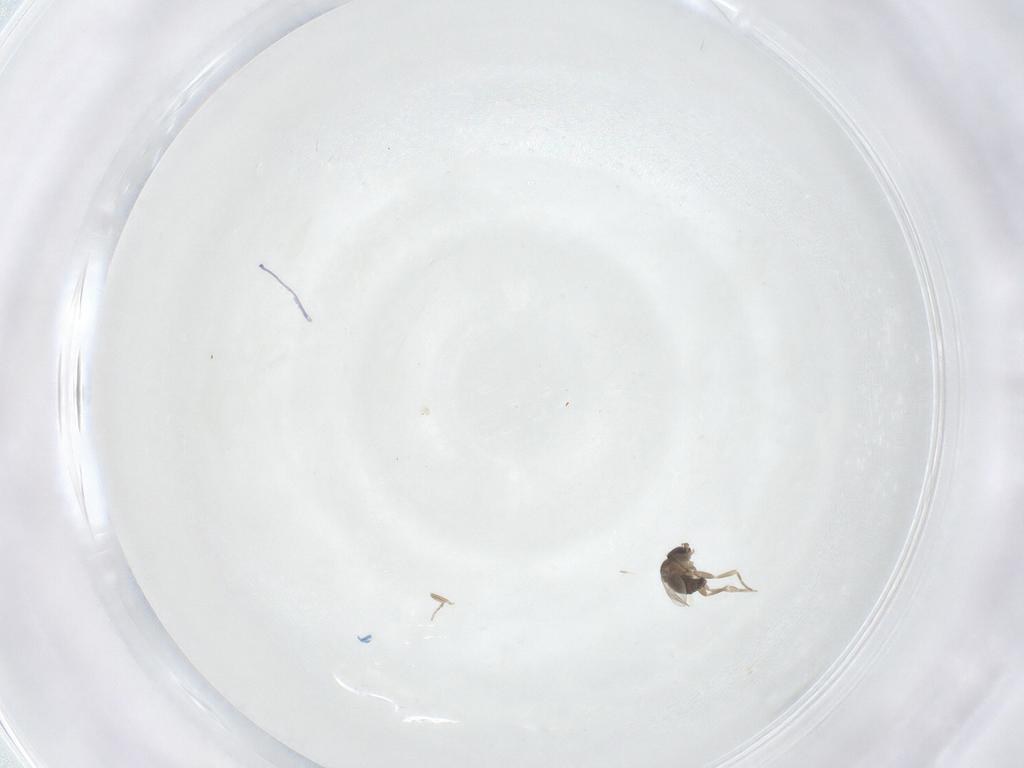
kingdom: Animalia
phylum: Arthropoda
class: Insecta
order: Diptera
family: Phoridae
